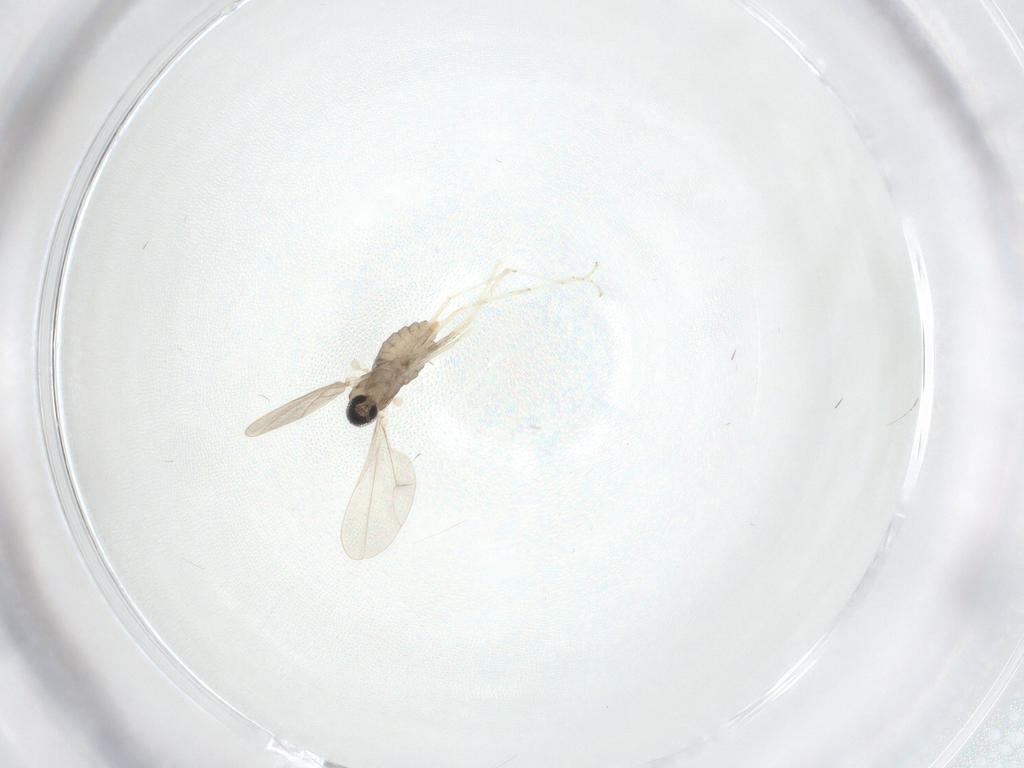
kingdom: Animalia
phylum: Arthropoda
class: Insecta
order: Diptera
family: Cecidomyiidae
